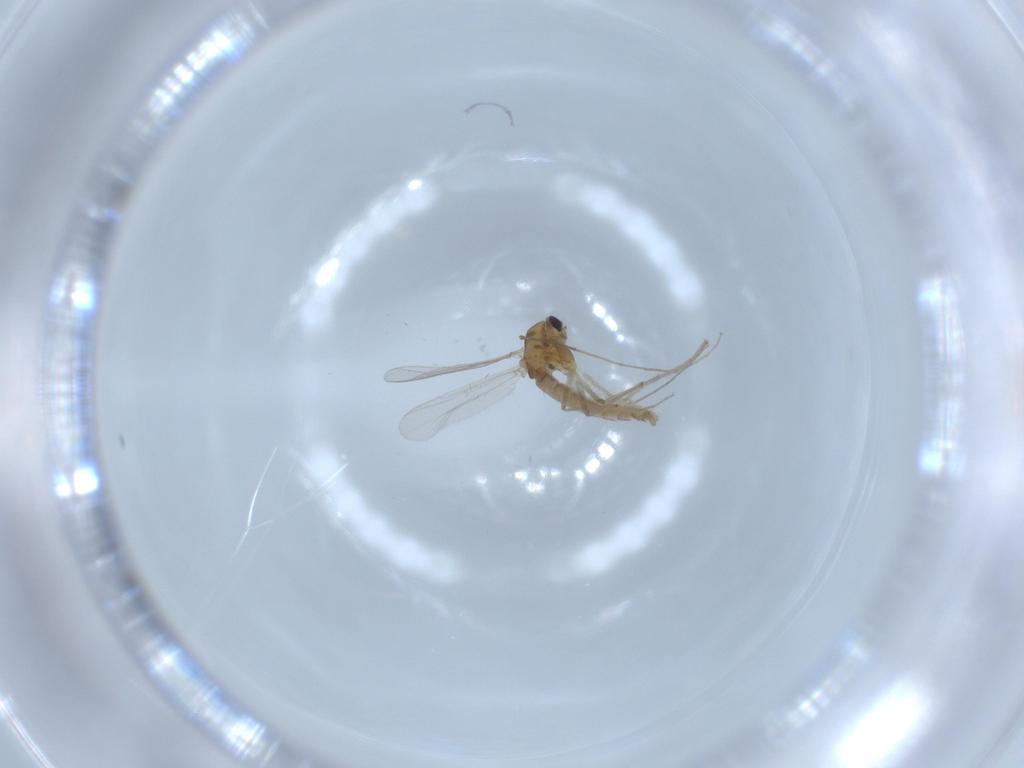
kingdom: Animalia
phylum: Arthropoda
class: Insecta
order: Diptera
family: Chironomidae
